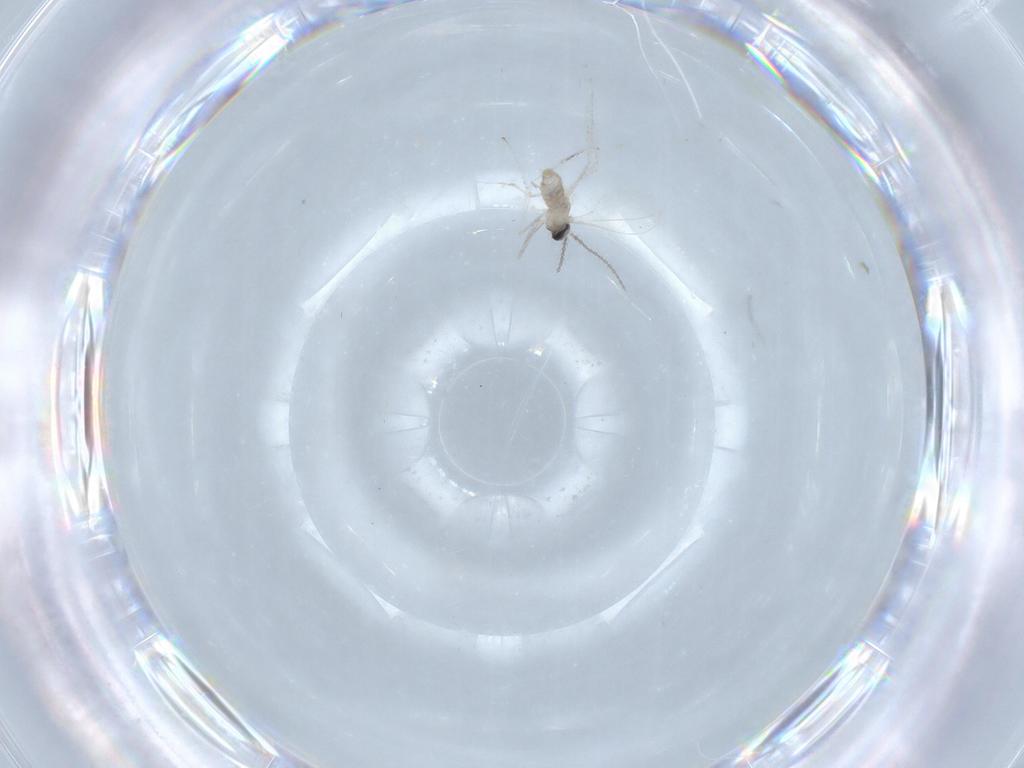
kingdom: Animalia
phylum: Arthropoda
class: Insecta
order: Diptera
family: Cecidomyiidae
